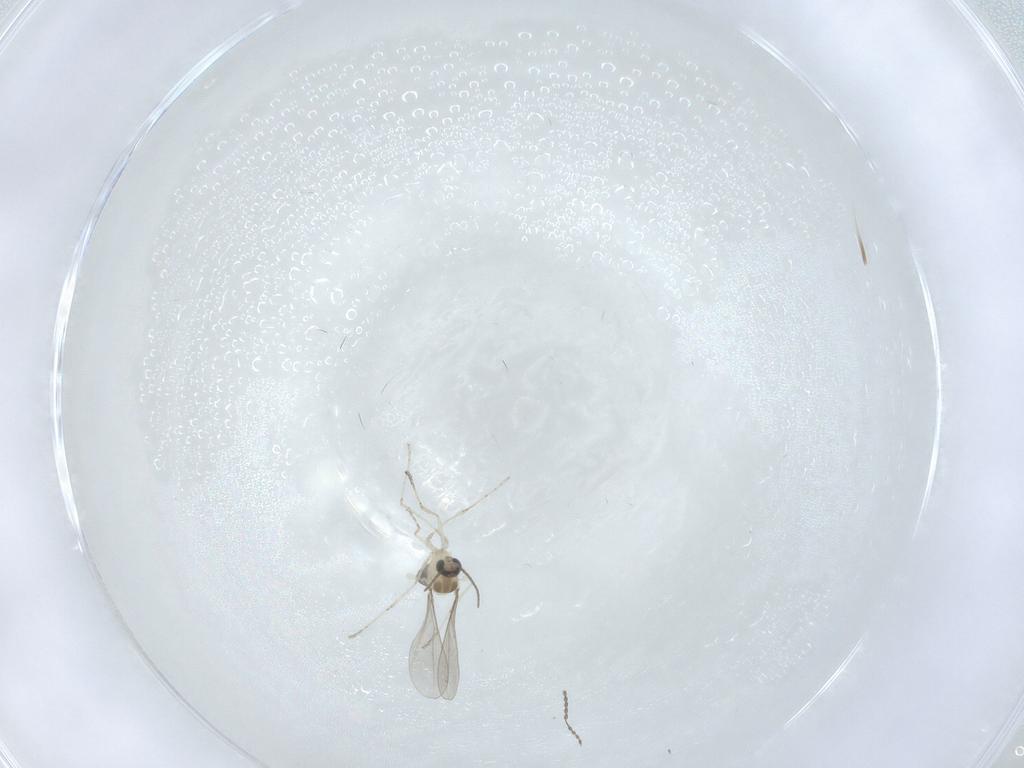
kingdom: Animalia
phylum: Arthropoda
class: Insecta
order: Diptera
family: Cecidomyiidae
